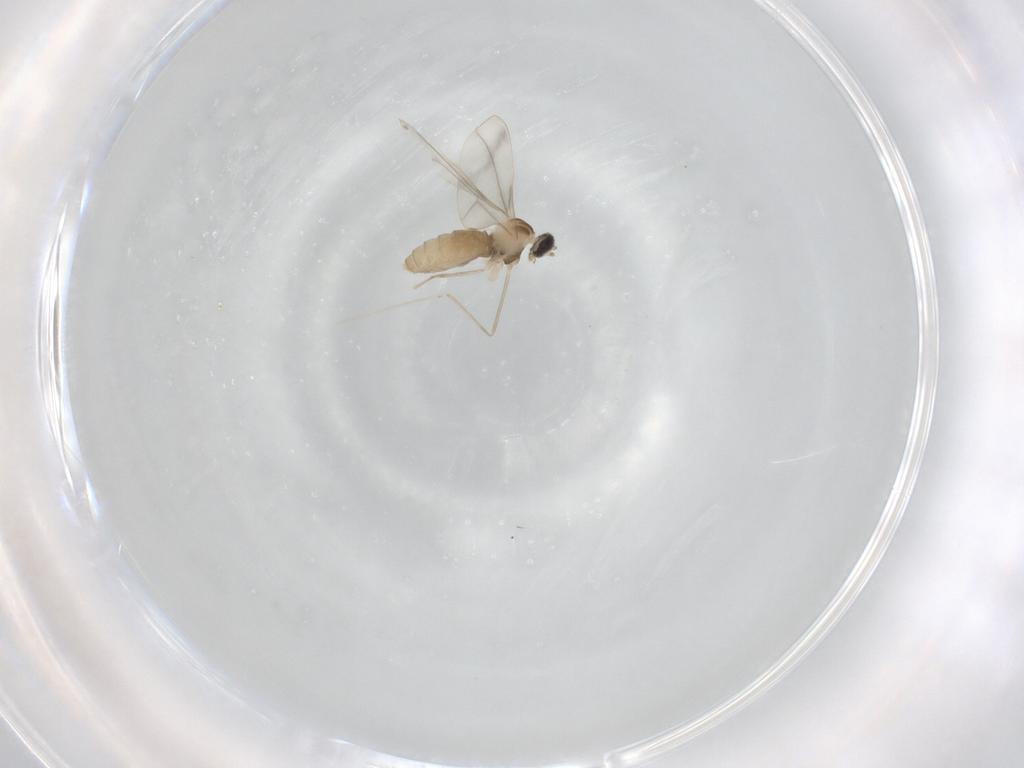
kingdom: Animalia
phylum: Arthropoda
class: Insecta
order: Diptera
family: Cecidomyiidae
